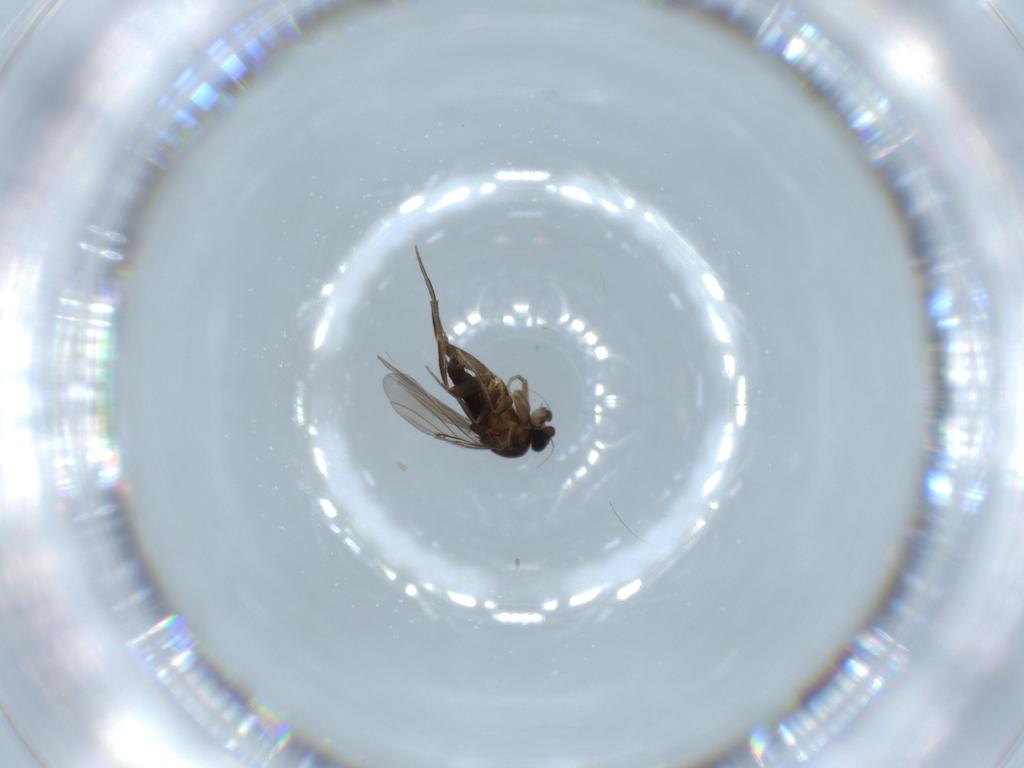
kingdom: Animalia
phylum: Arthropoda
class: Insecta
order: Diptera
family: Phoridae
